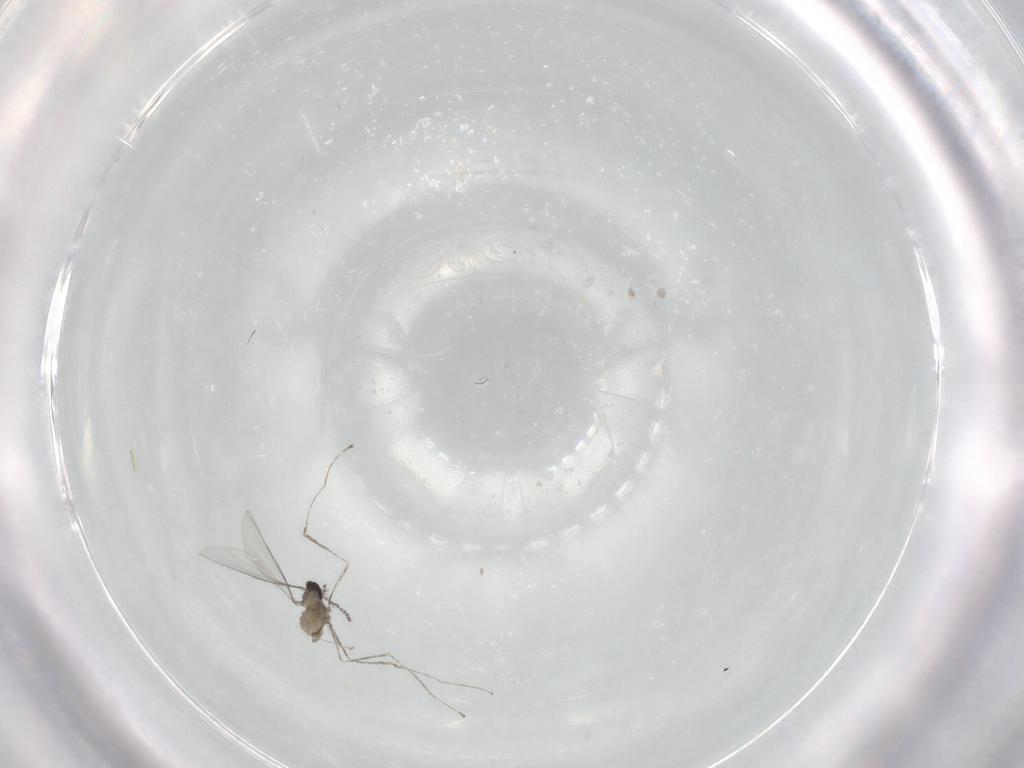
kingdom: Animalia
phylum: Arthropoda
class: Insecta
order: Diptera
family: Cecidomyiidae
